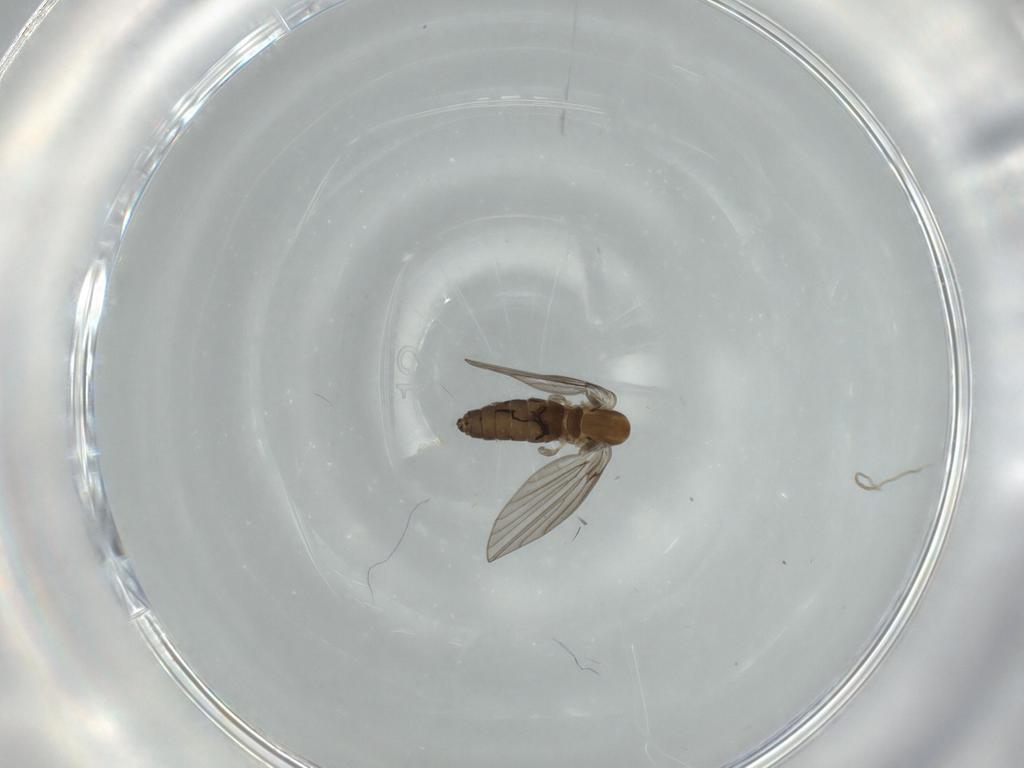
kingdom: Animalia
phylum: Arthropoda
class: Insecta
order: Diptera
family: Psychodidae
